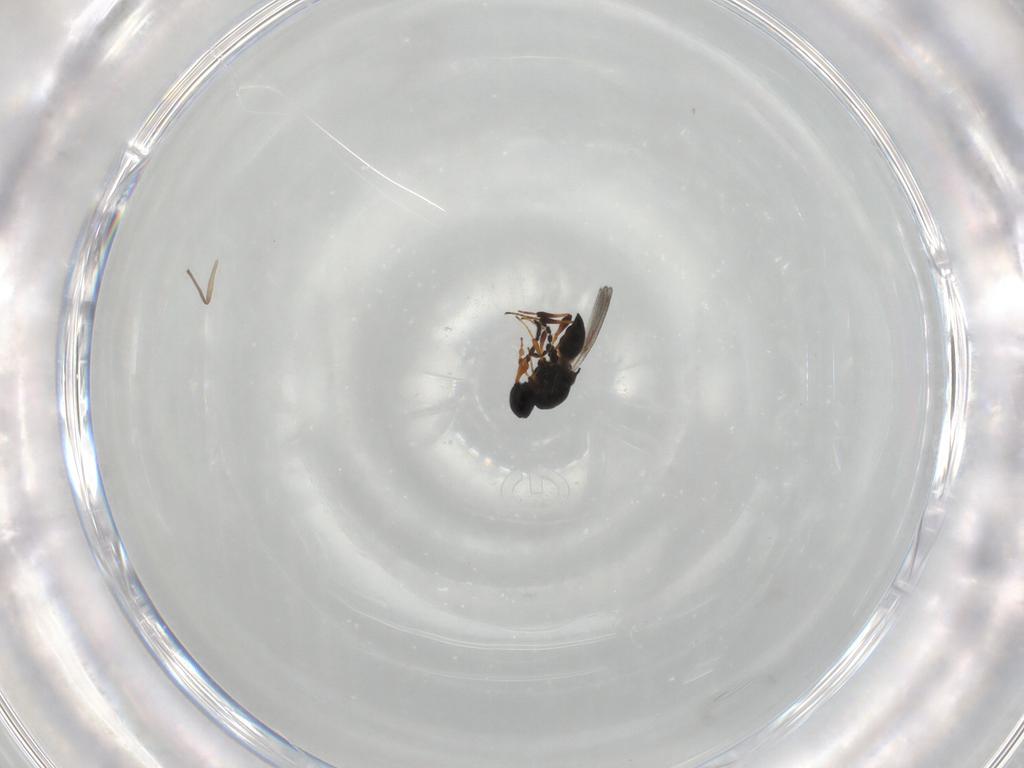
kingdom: Animalia
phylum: Arthropoda
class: Insecta
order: Hymenoptera
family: Platygastridae
